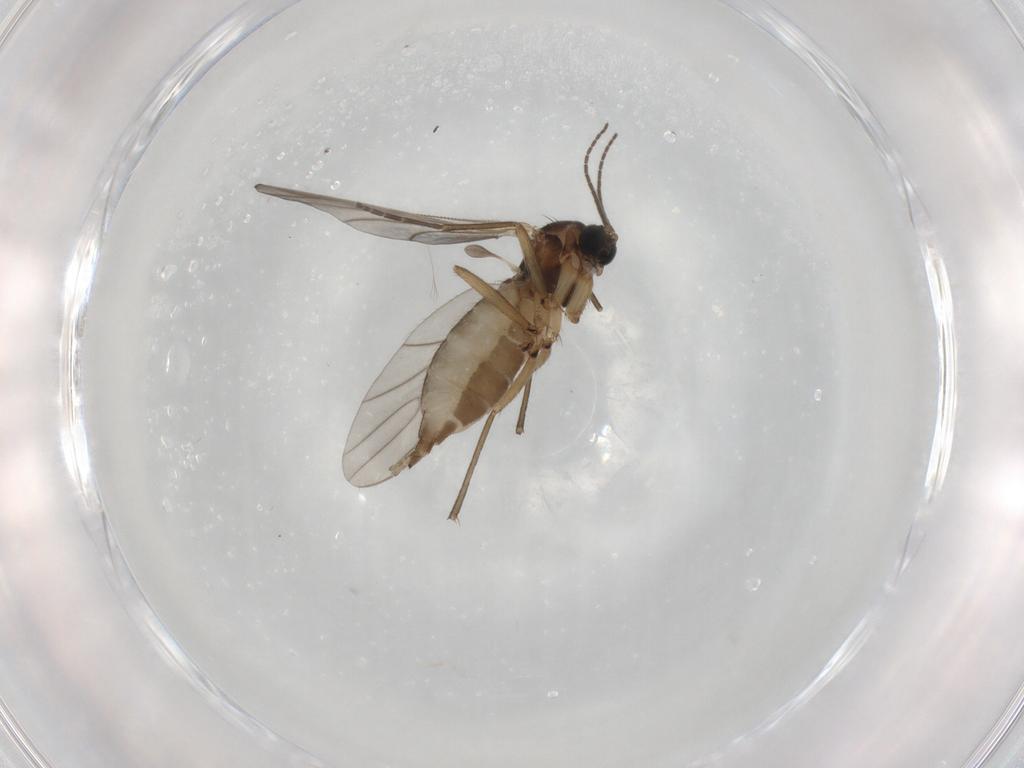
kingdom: Animalia
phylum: Arthropoda
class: Insecta
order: Diptera
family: Sciaridae
